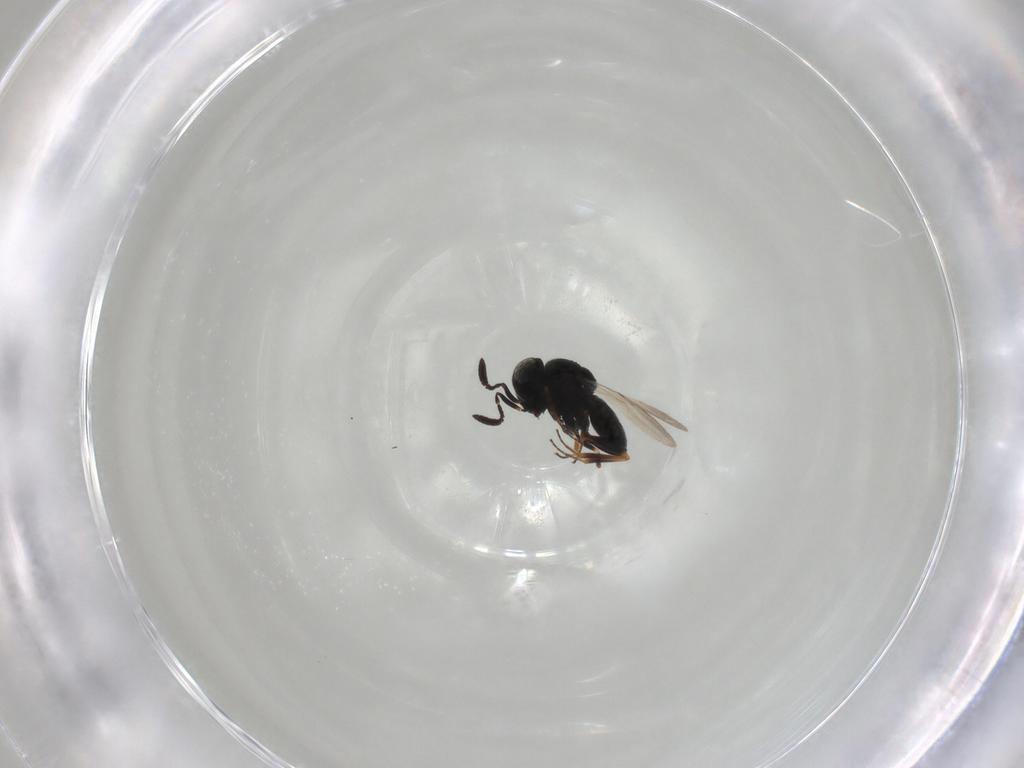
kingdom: Animalia
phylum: Arthropoda
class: Insecta
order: Hymenoptera
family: Scelionidae
